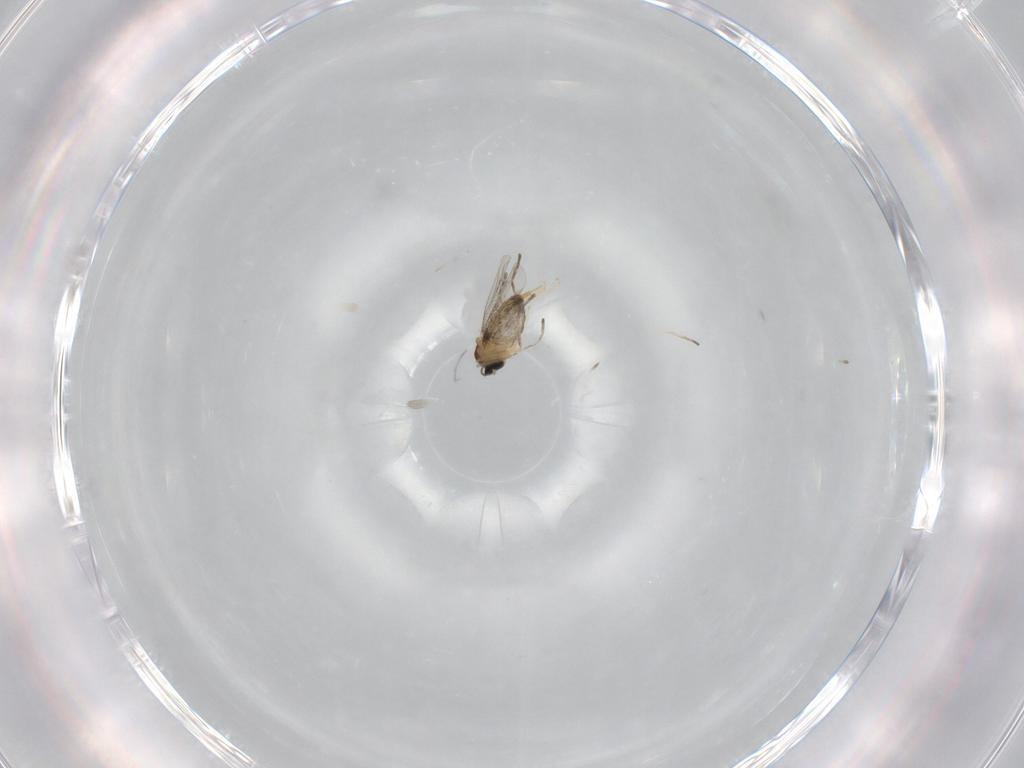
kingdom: Animalia
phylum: Arthropoda
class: Insecta
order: Diptera
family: Cecidomyiidae
